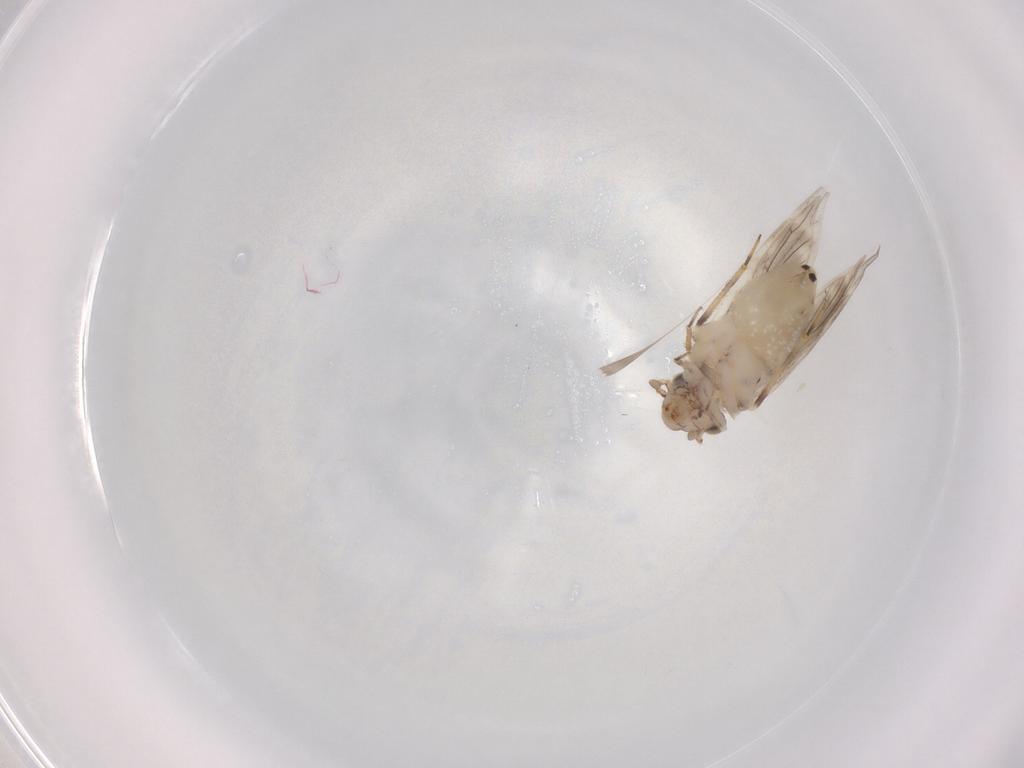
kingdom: Animalia
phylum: Arthropoda
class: Insecta
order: Psocodea
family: Lepidopsocidae
